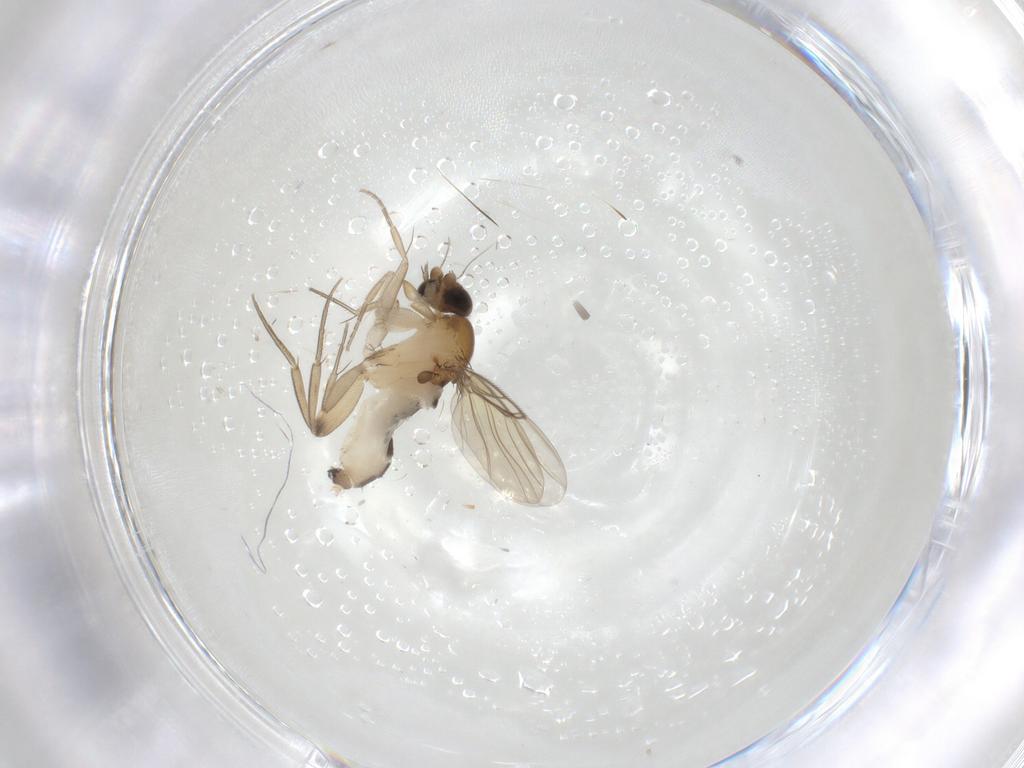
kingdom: Animalia
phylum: Arthropoda
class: Insecta
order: Diptera
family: Phoridae
